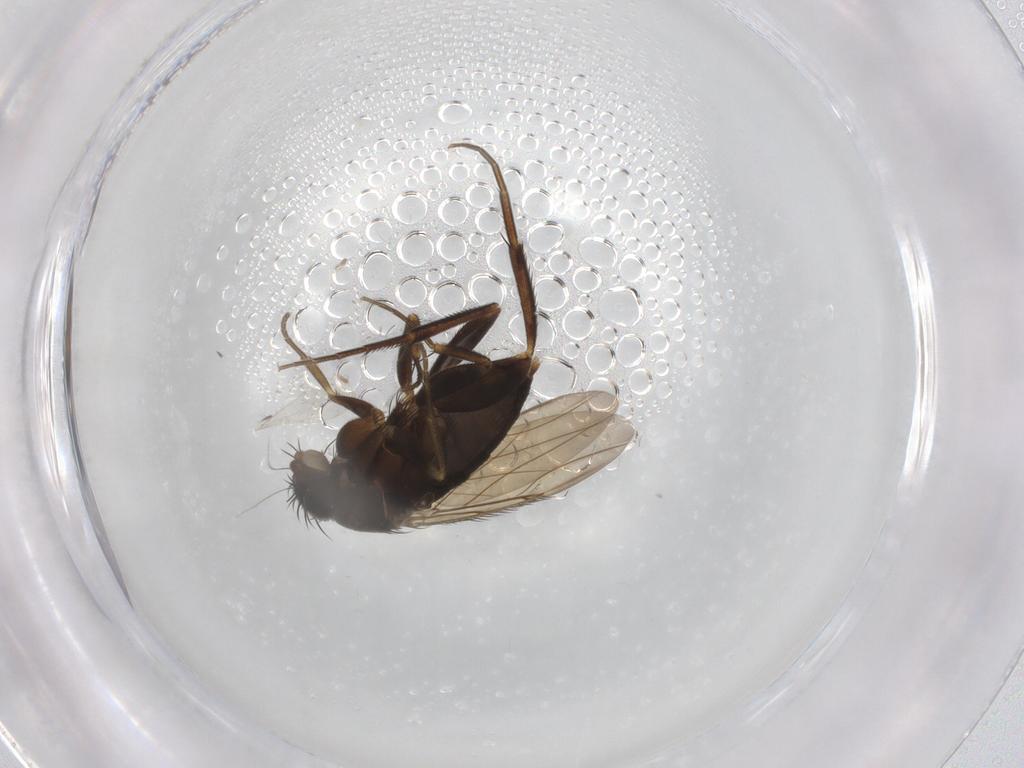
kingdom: Animalia
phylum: Arthropoda
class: Insecta
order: Diptera
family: Phoridae
